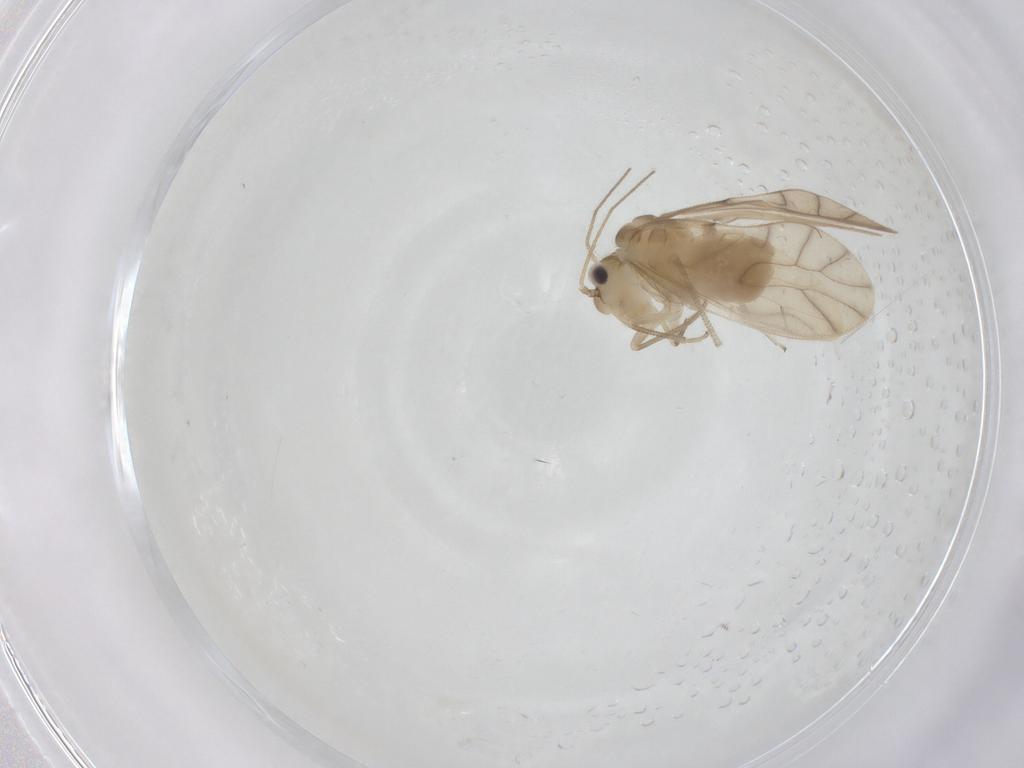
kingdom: Animalia
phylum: Arthropoda
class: Insecta
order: Psocodea
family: Caeciliusidae
